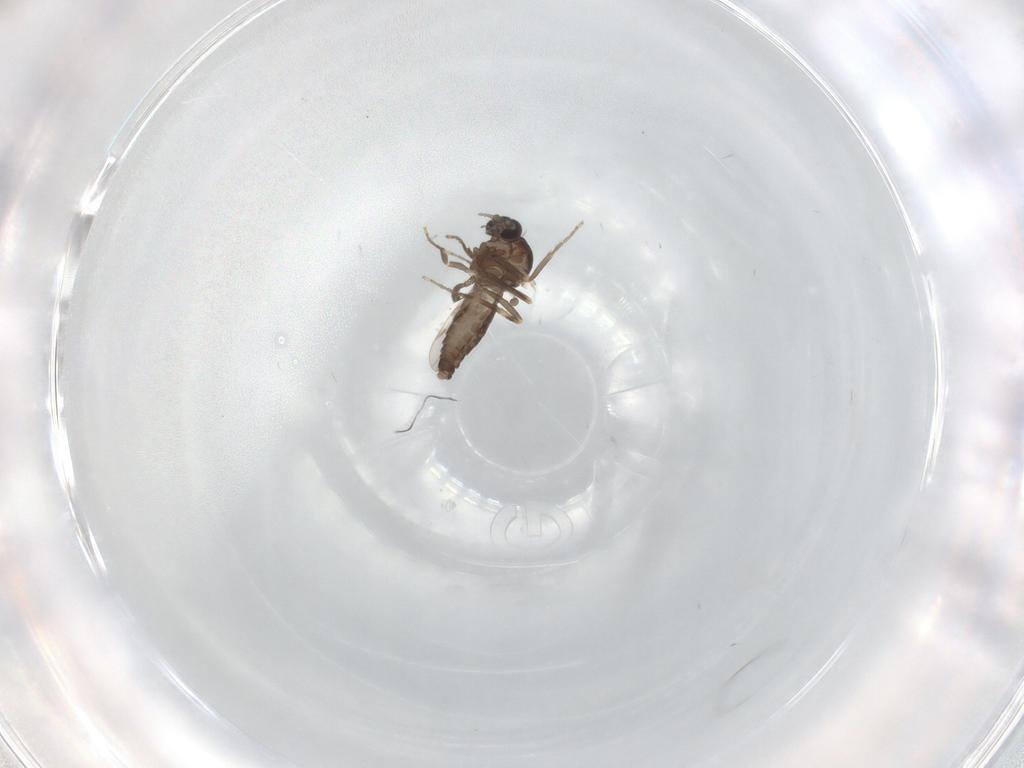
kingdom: Animalia
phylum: Arthropoda
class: Insecta
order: Diptera
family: Ceratopogonidae
